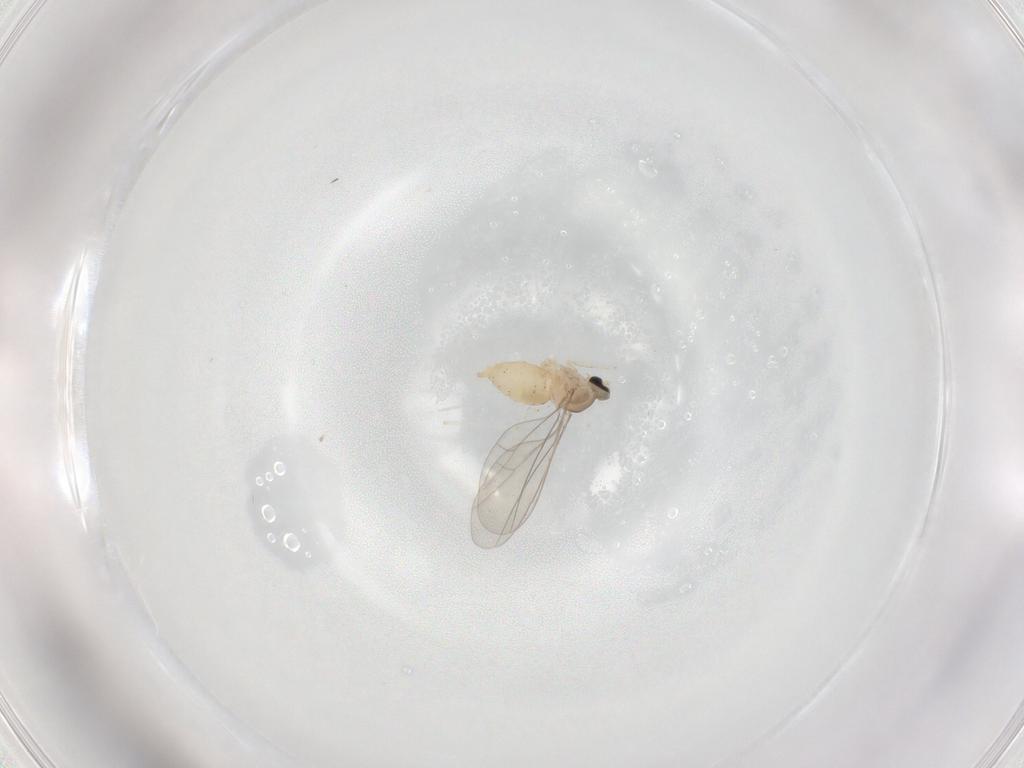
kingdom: Animalia
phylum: Arthropoda
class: Insecta
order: Diptera
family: Cecidomyiidae
